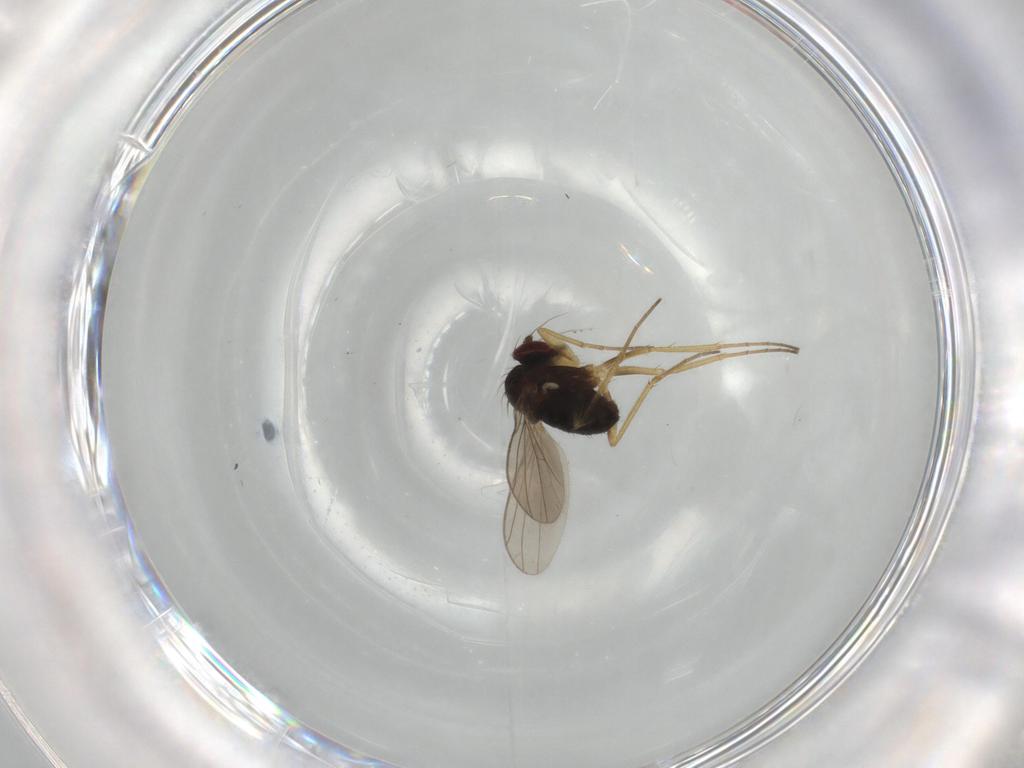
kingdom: Animalia
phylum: Arthropoda
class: Insecta
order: Diptera
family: Dolichopodidae
